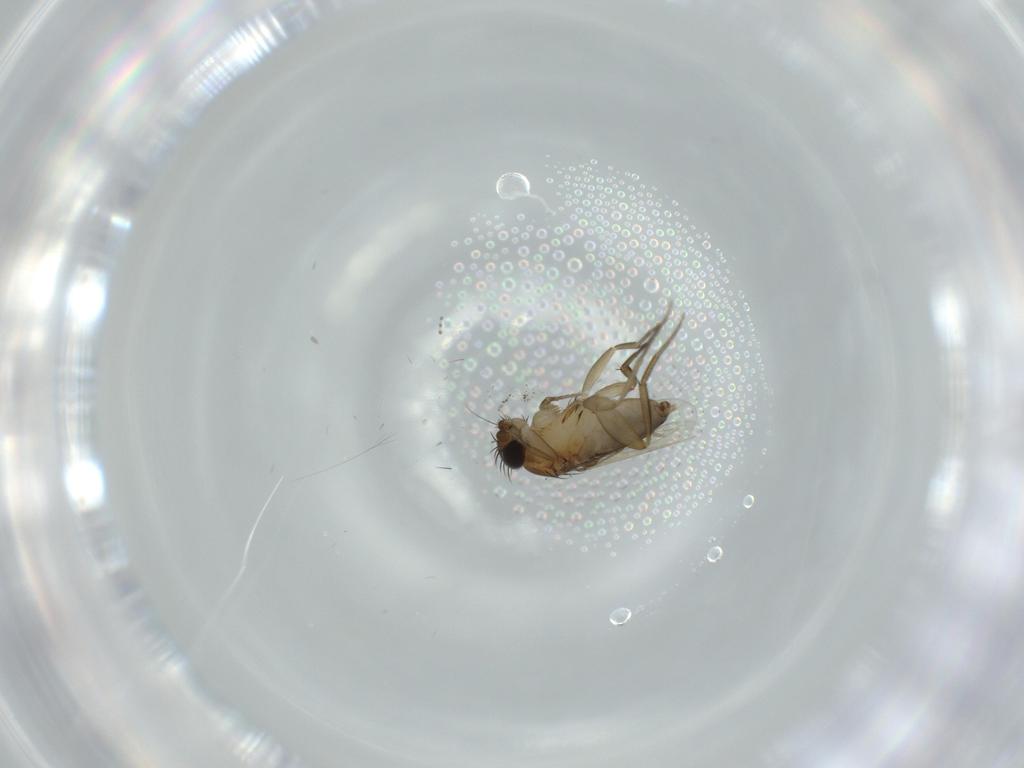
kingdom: Animalia
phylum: Arthropoda
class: Insecta
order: Diptera
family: Sciaridae
